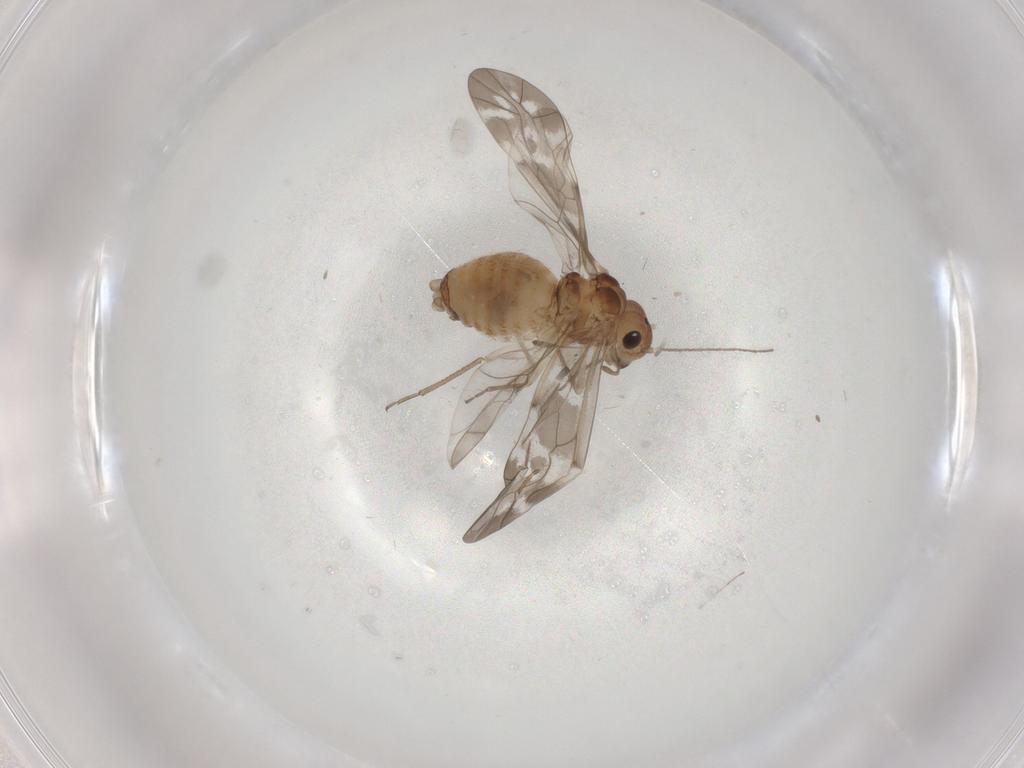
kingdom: Animalia
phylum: Arthropoda
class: Insecta
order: Psocodea
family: Peripsocidae
